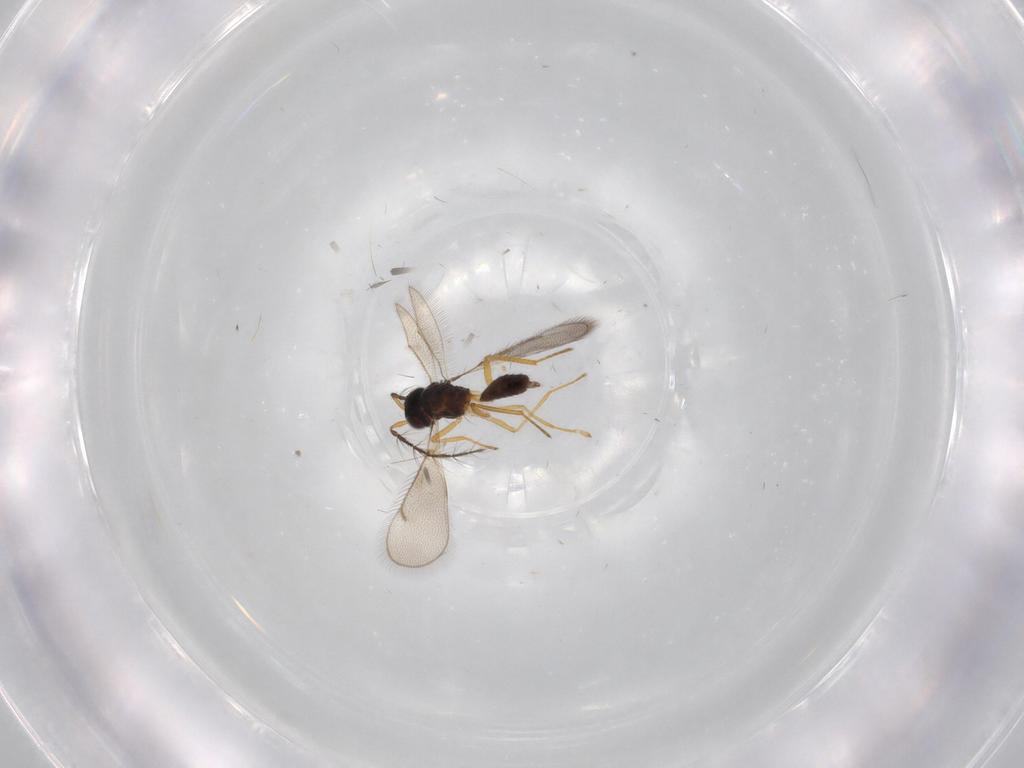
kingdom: Animalia
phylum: Arthropoda
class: Insecta
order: Hymenoptera
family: Eulophidae
